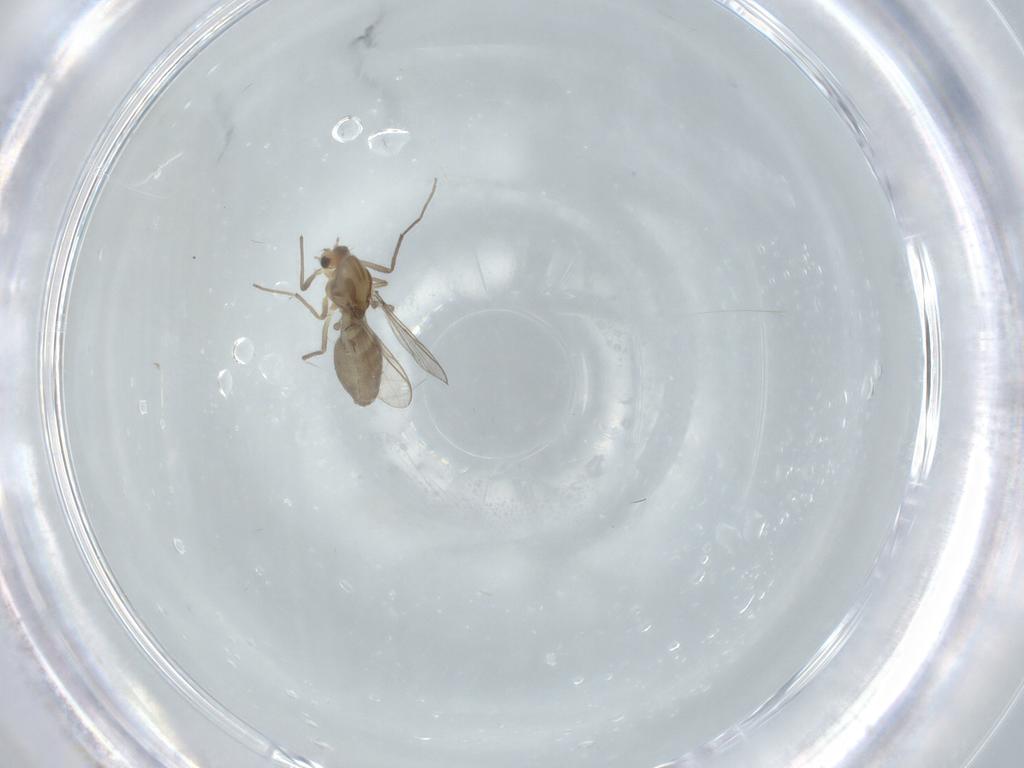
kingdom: Animalia
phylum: Arthropoda
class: Insecta
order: Diptera
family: Chironomidae
